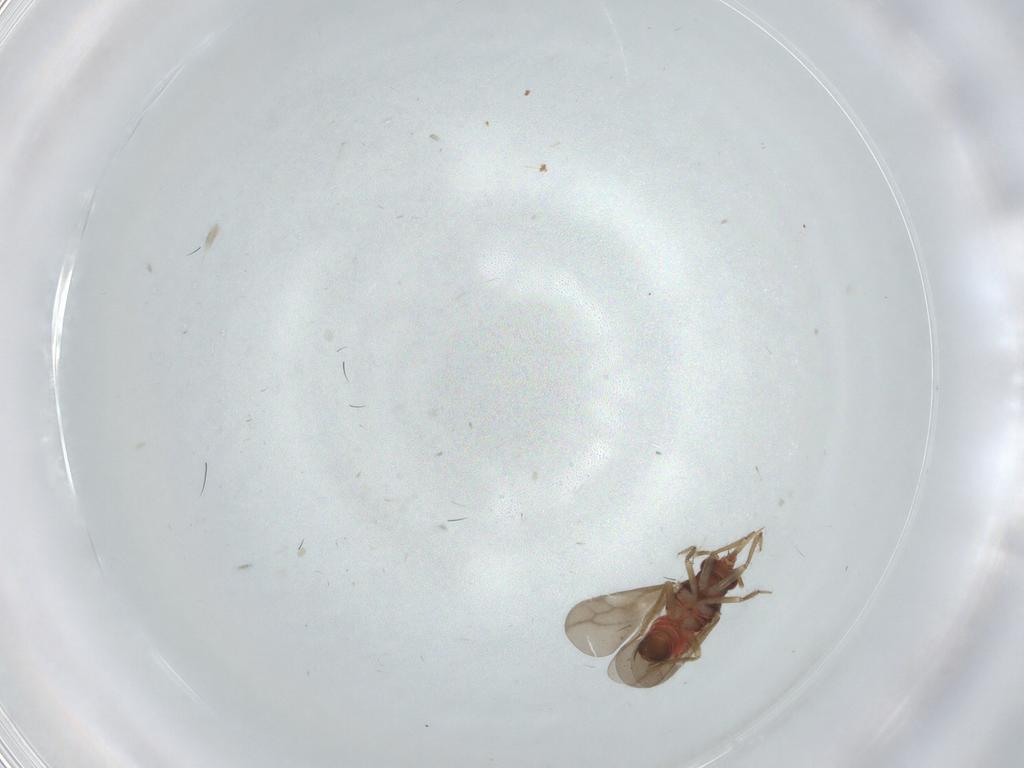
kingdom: Animalia
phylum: Arthropoda
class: Insecta
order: Hemiptera
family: Ceratocombidae
